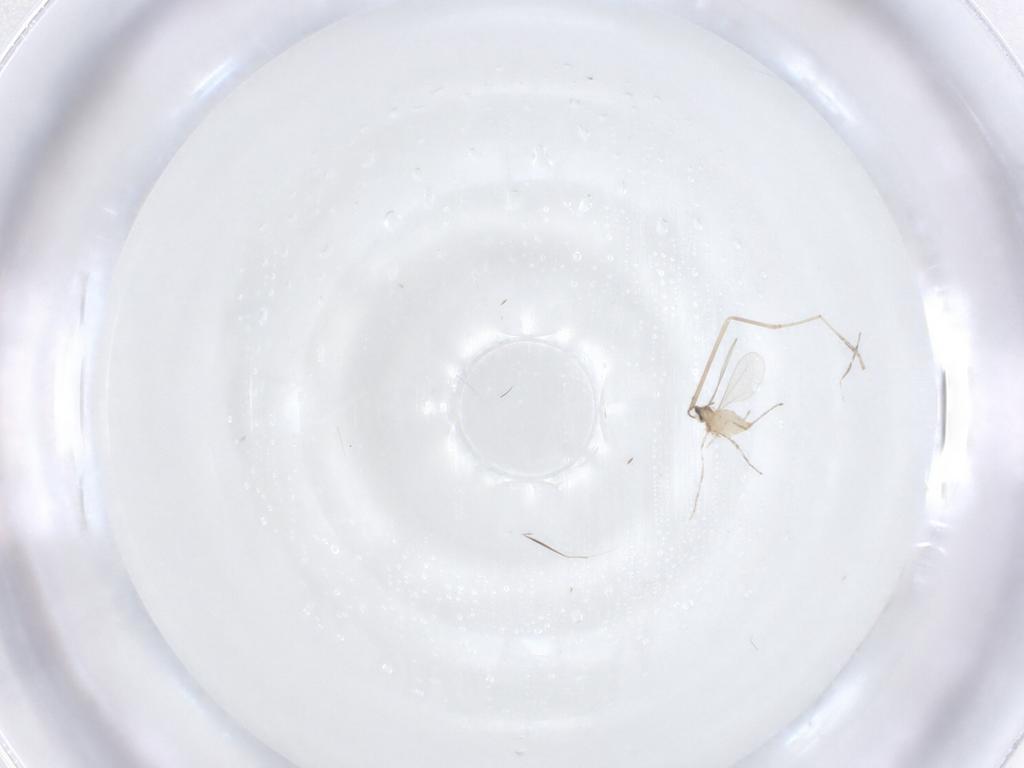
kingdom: Animalia
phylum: Arthropoda
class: Insecta
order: Diptera
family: Cecidomyiidae
